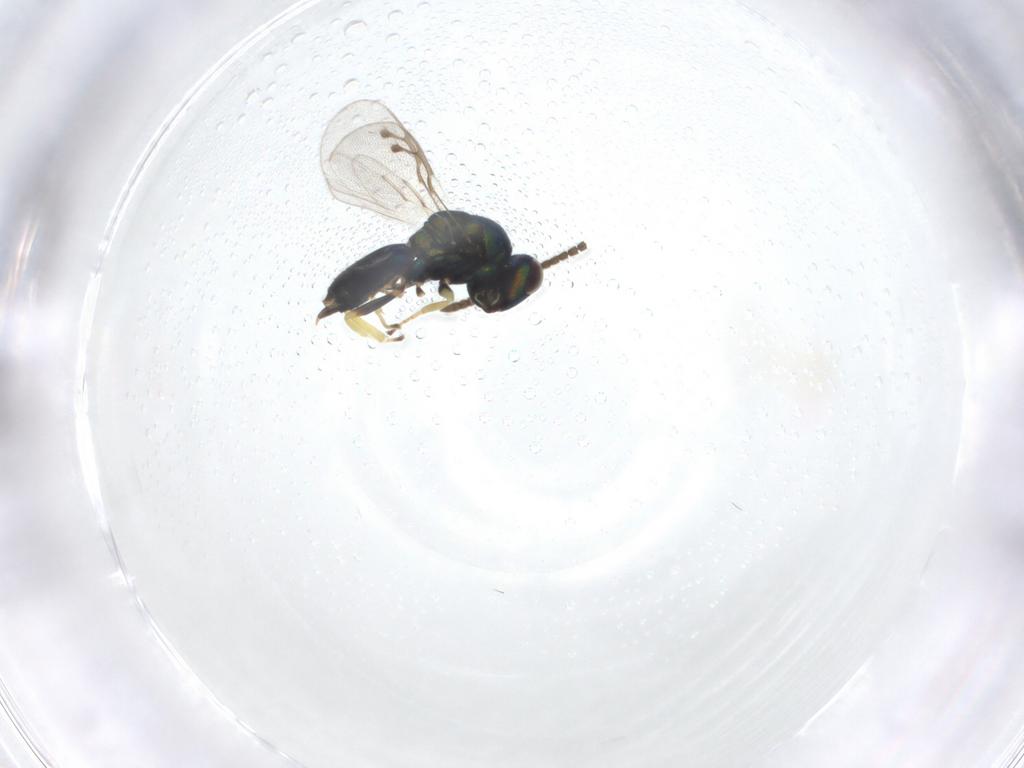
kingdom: Animalia
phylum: Arthropoda
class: Insecta
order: Hymenoptera
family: Pteromalidae
